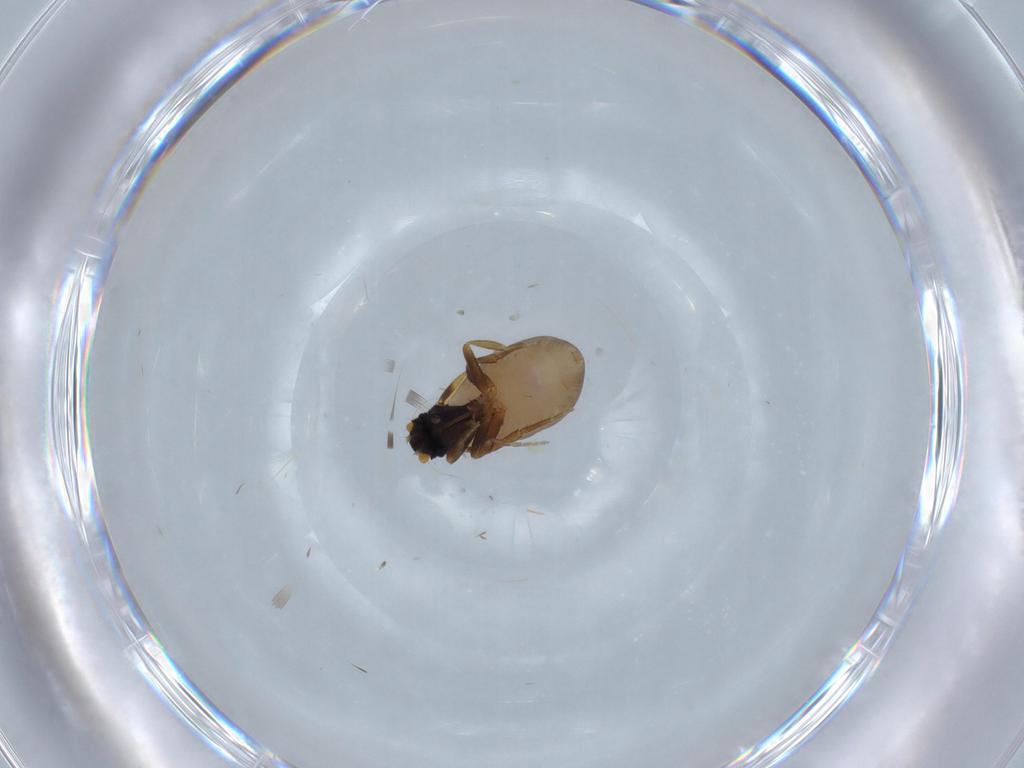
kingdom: Animalia
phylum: Arthropoda
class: Insecta
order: Diptera
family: Phoridae
